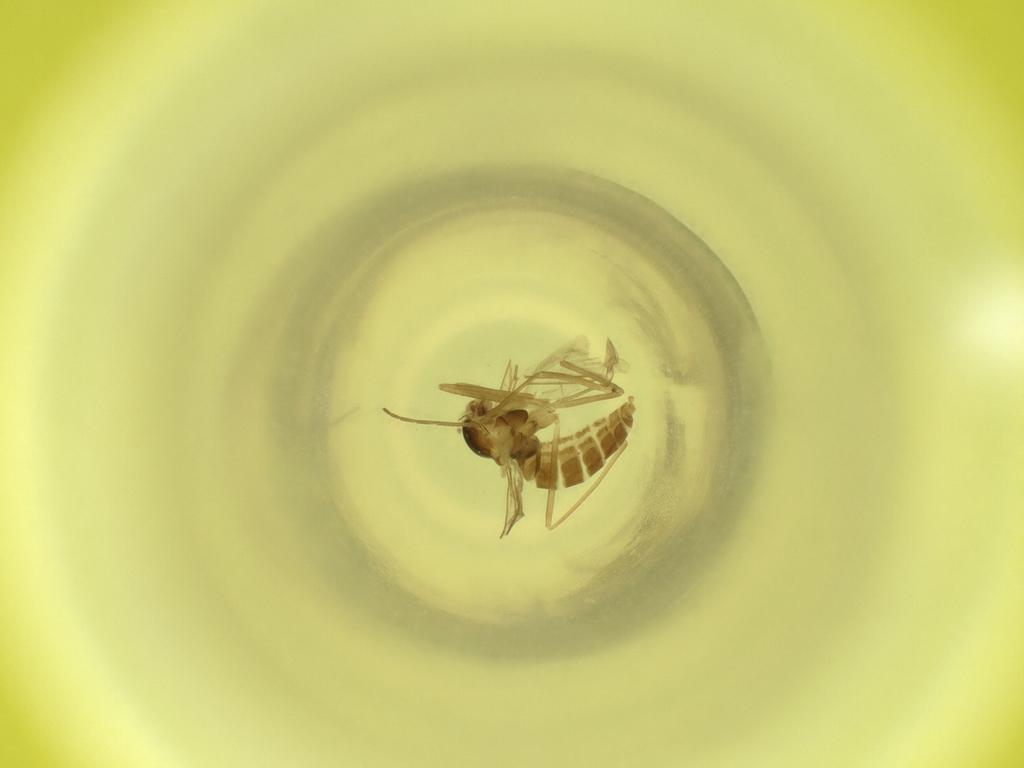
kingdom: Animalia
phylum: Arthropoda
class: Insecta
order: Diptera
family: Cecidomyiidae
